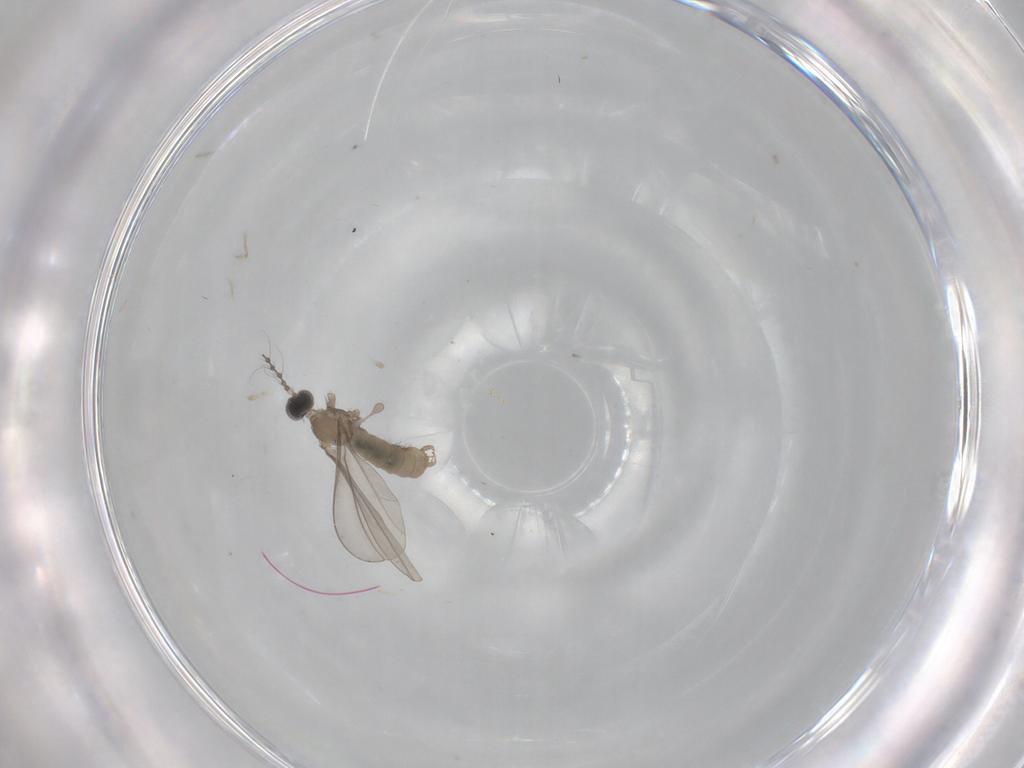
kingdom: Animalia
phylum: Arthropoda
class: Insecta
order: Diptera
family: Cecidomyiidae
